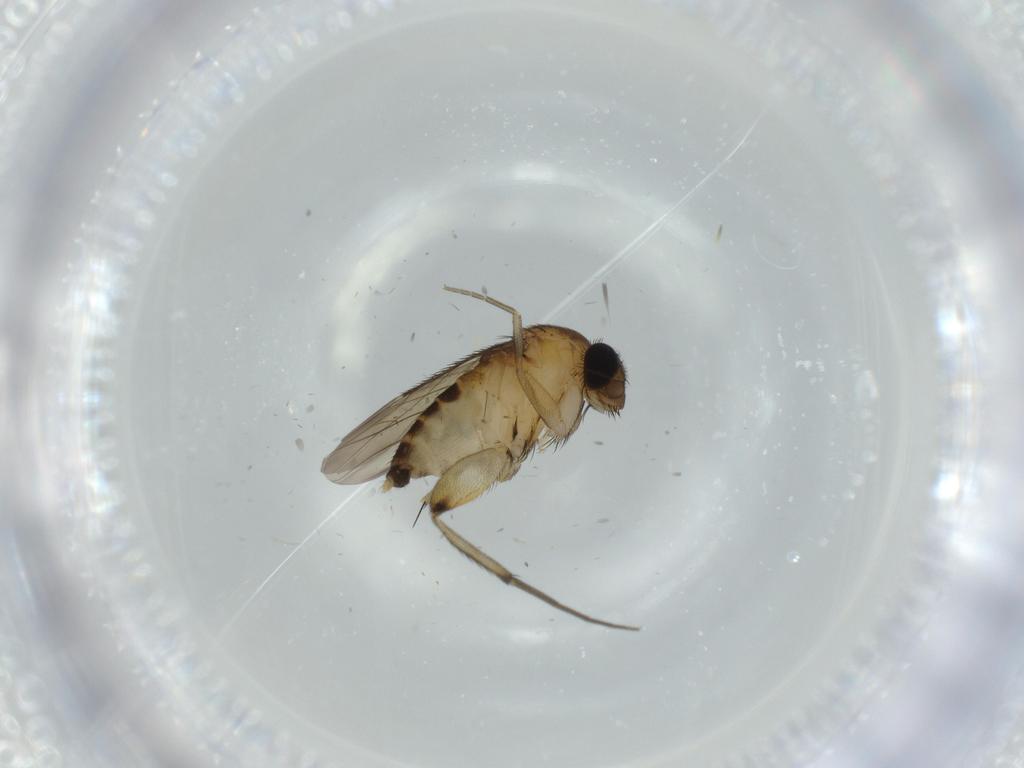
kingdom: Animalia
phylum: Arthropoda
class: Insecta
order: Diptera
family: Phoridae
